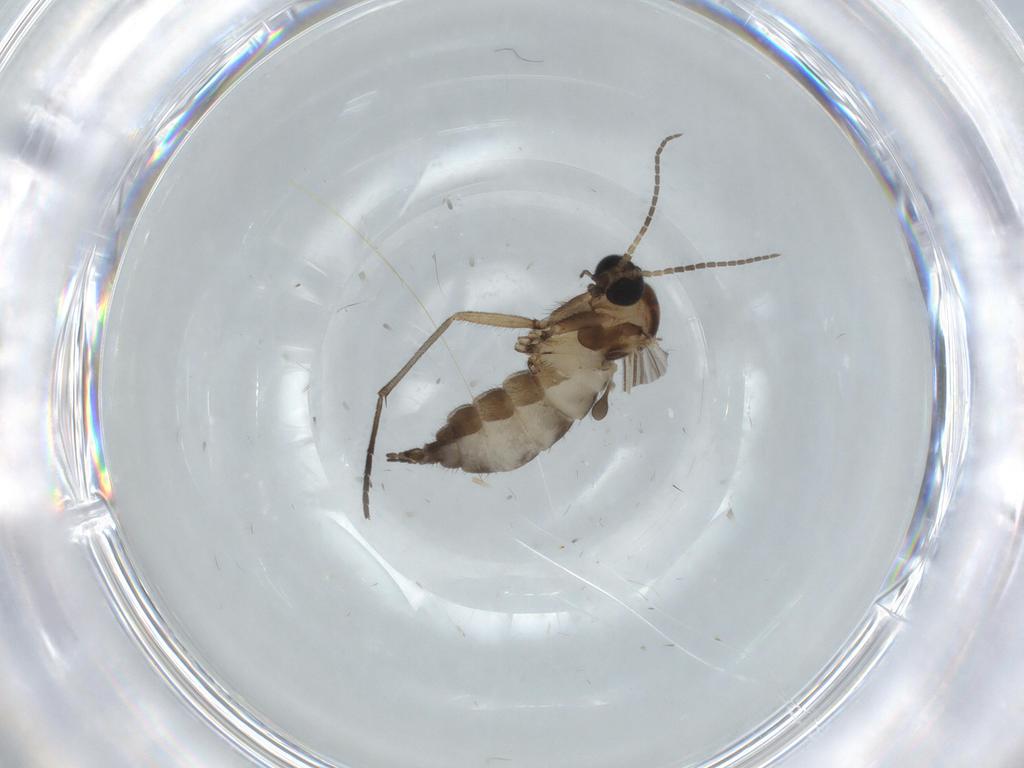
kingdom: Animalia
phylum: Arthropoda
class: Insecta
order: Diptera
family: Sciaridae
